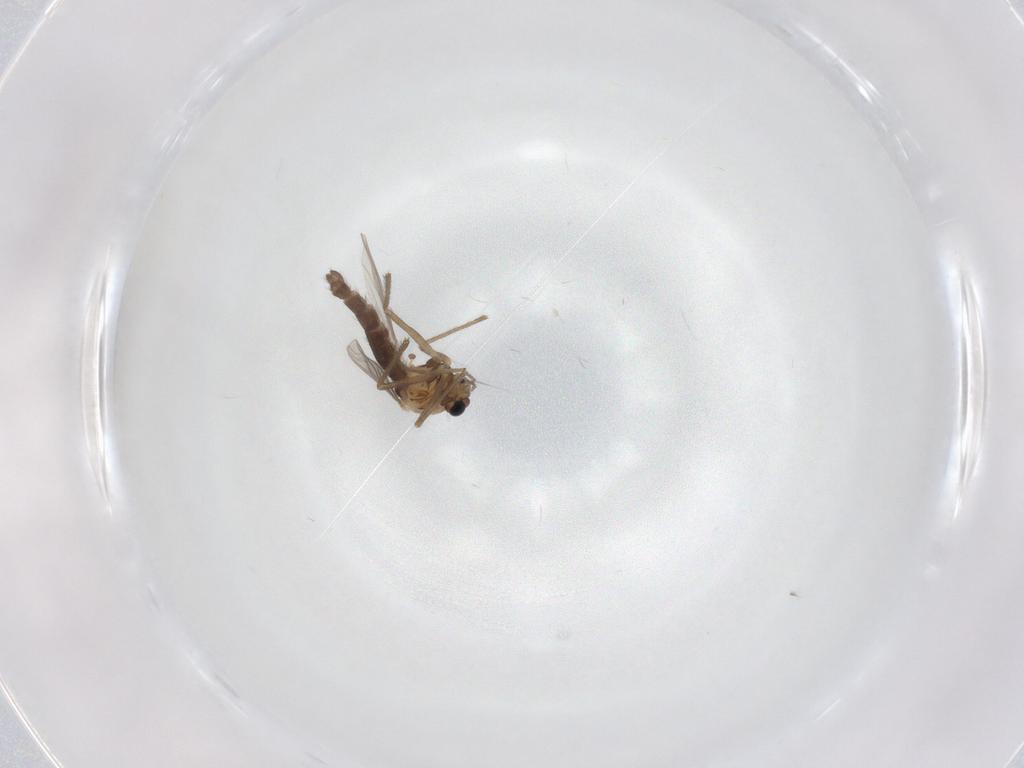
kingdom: Animalia
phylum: Arthropoda
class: Insecta
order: Diptera
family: Chironomidae
